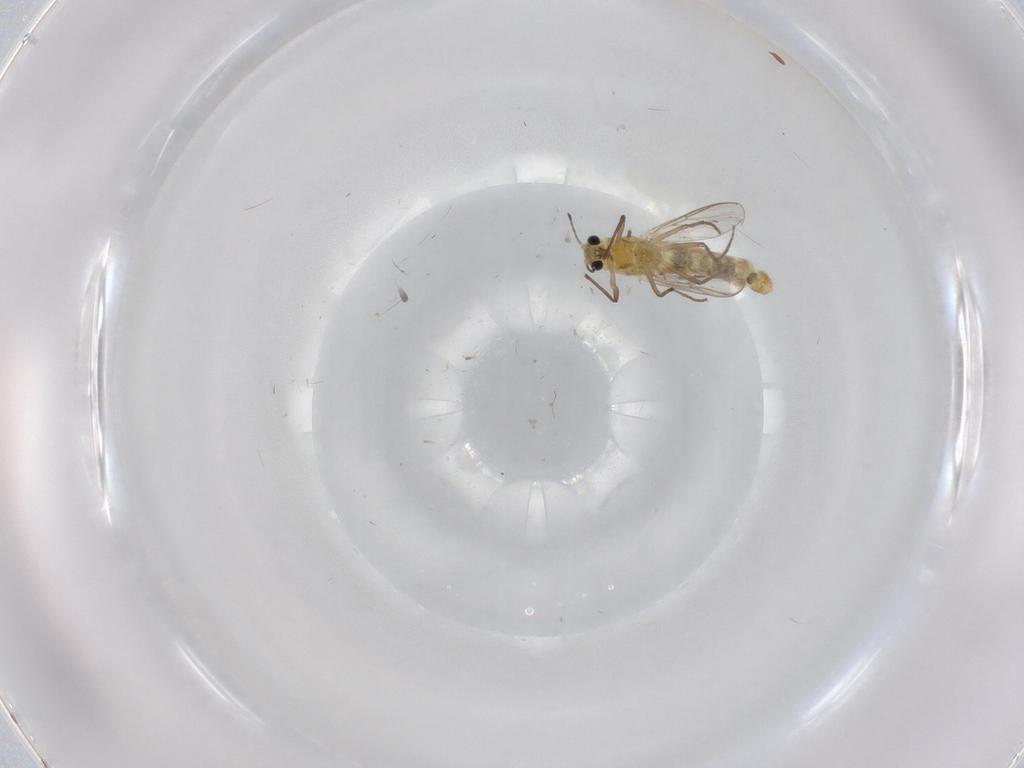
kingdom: Animalia
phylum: Arthropoda
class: Insecta
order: Diptera
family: Chironomidae
